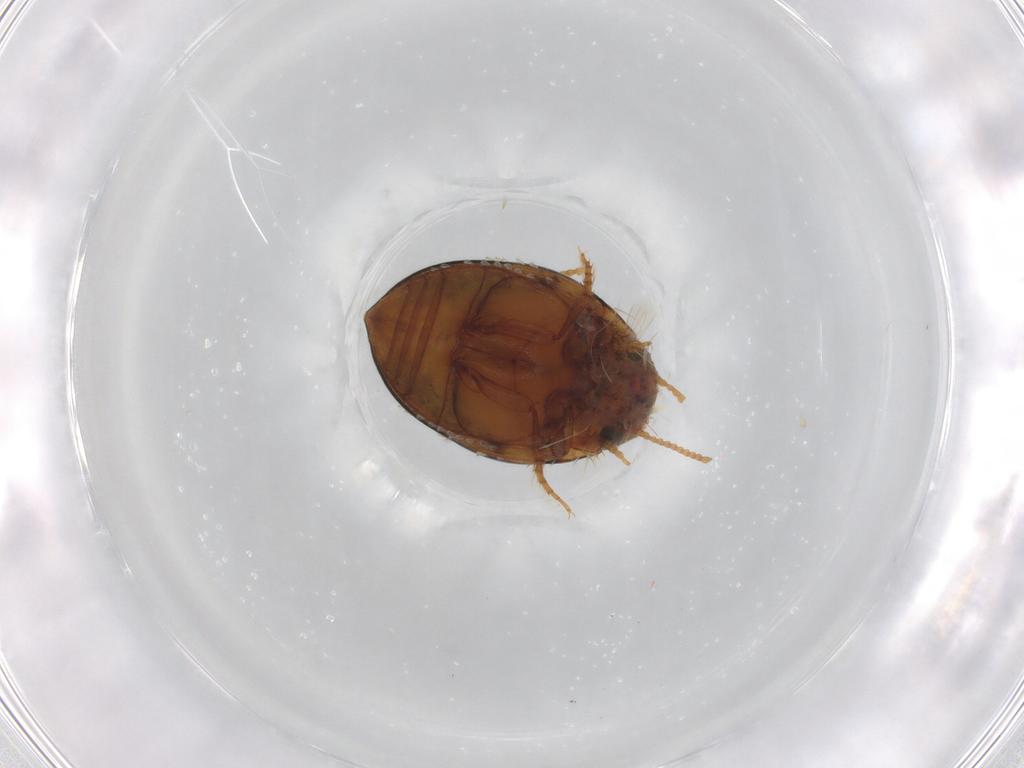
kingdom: Animalia
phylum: Arthropoda
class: Insecta
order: Coleoptera
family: Dytiscidae
